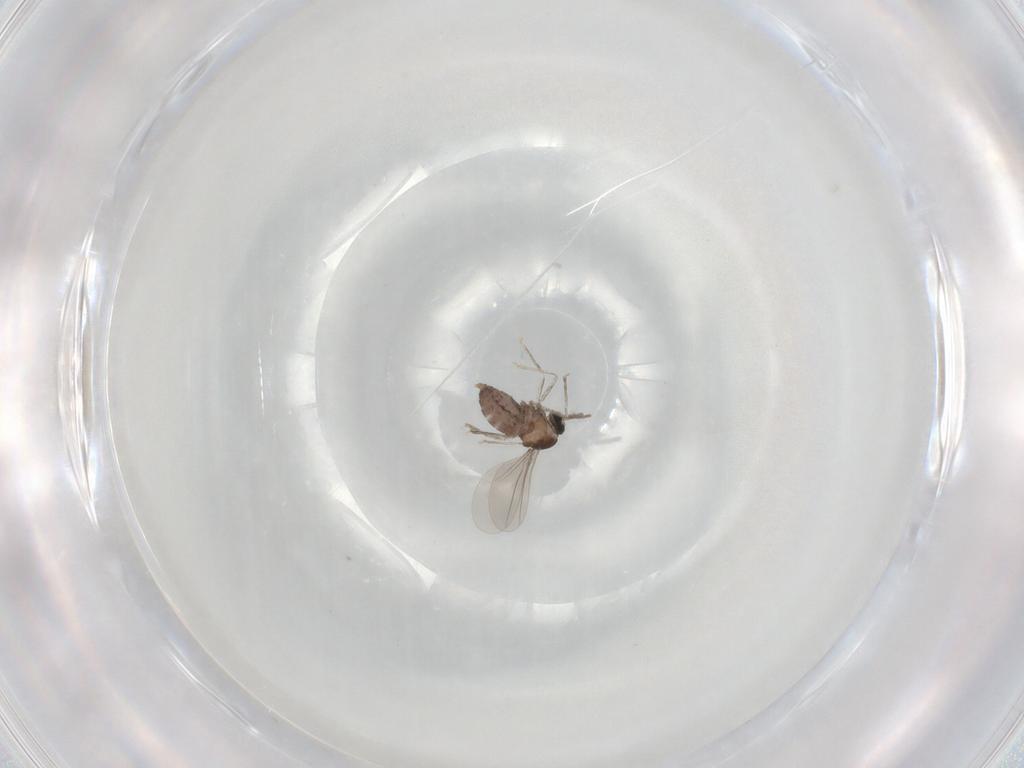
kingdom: Animalia
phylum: Arthropoda
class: Insecta
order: Diptera
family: Cecidomyiidae
